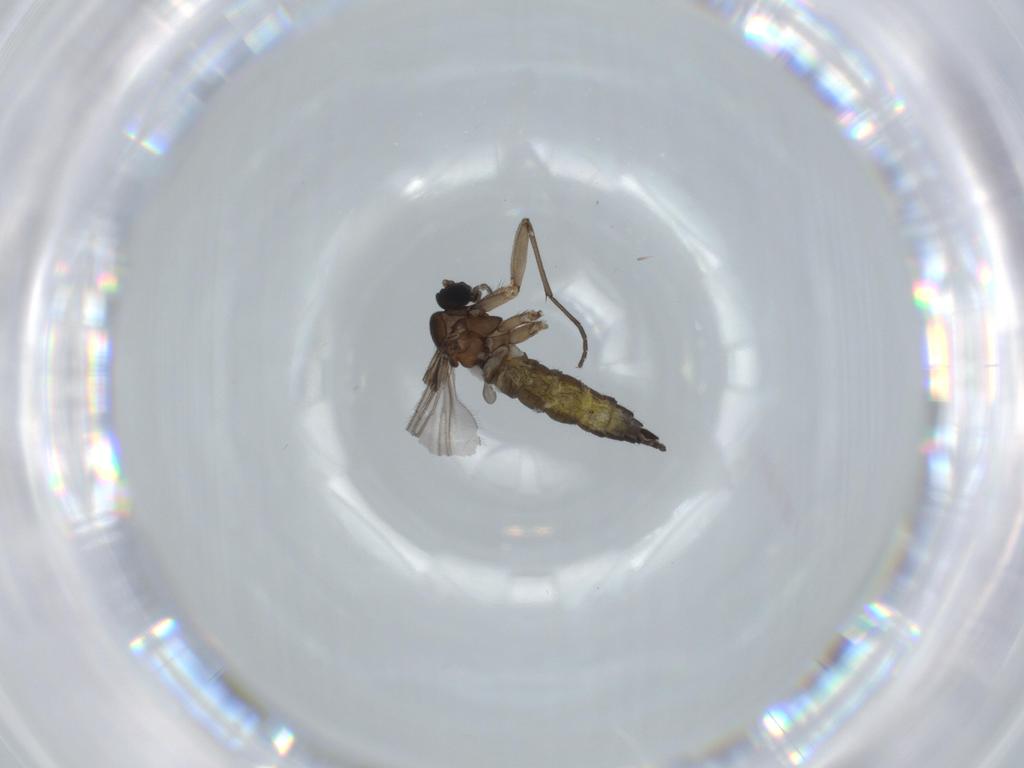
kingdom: Animalia
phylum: Arthropoda
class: Insecta
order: Diptera
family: Sciaridae
